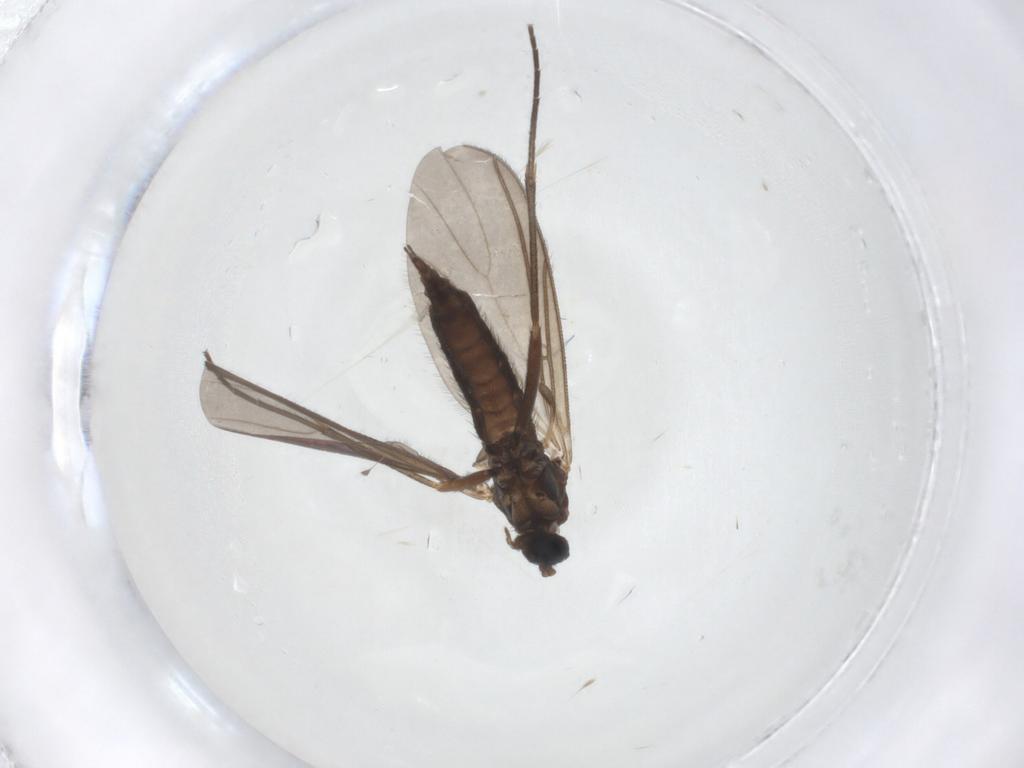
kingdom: Animalia
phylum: Arthropoda
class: Insecta
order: Diptera
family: Sciaridae
